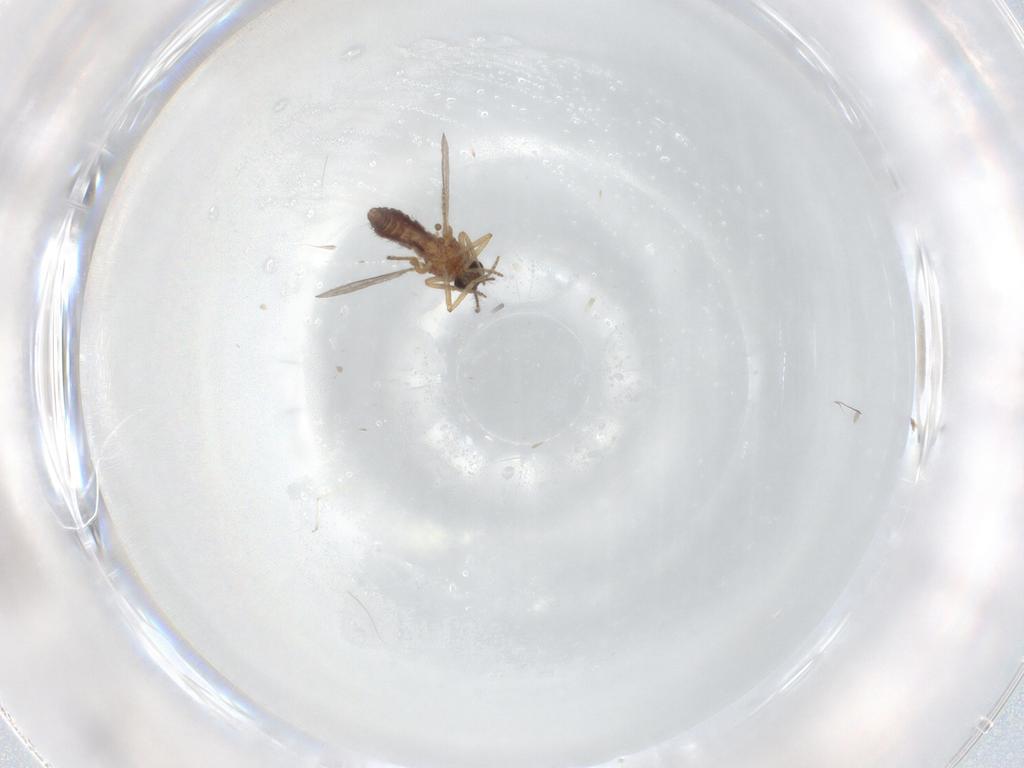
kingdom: Animalia
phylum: Arthropoda
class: Insecta
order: Diptera
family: Ceratopogonidae
